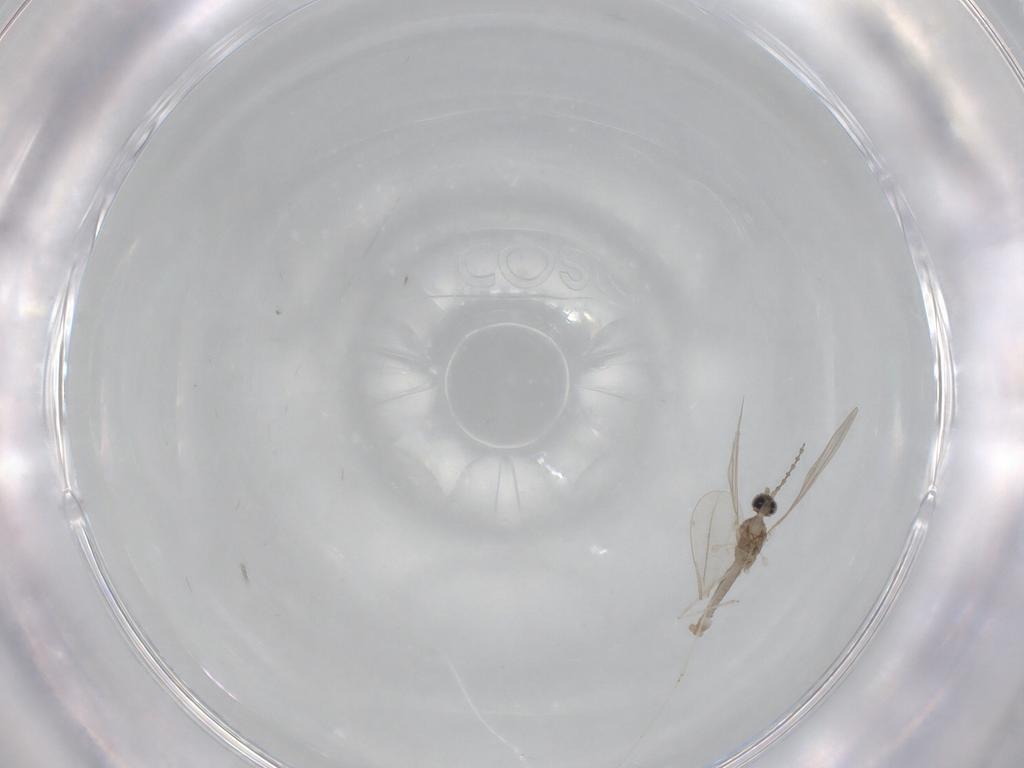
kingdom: Animalia
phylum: Arthropoda
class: Insecta
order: Diptera
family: Cecidomyiidae
